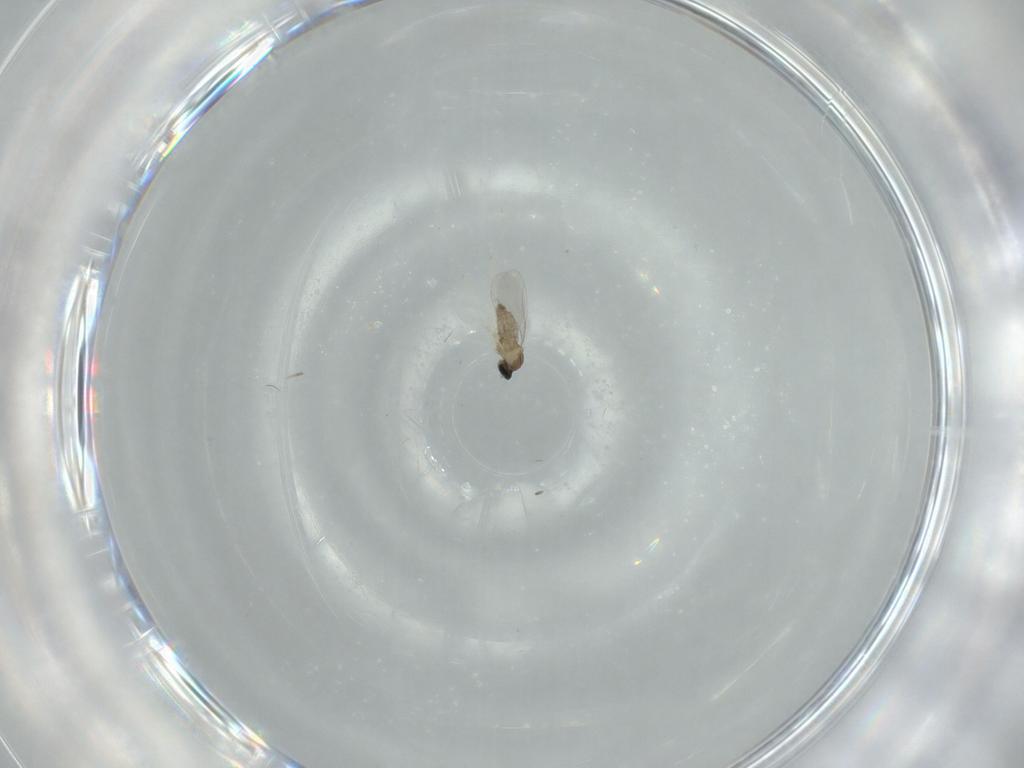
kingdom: Animalia
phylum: Arthropoda
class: Insecta
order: Diptera
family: Cecidomyiidae
